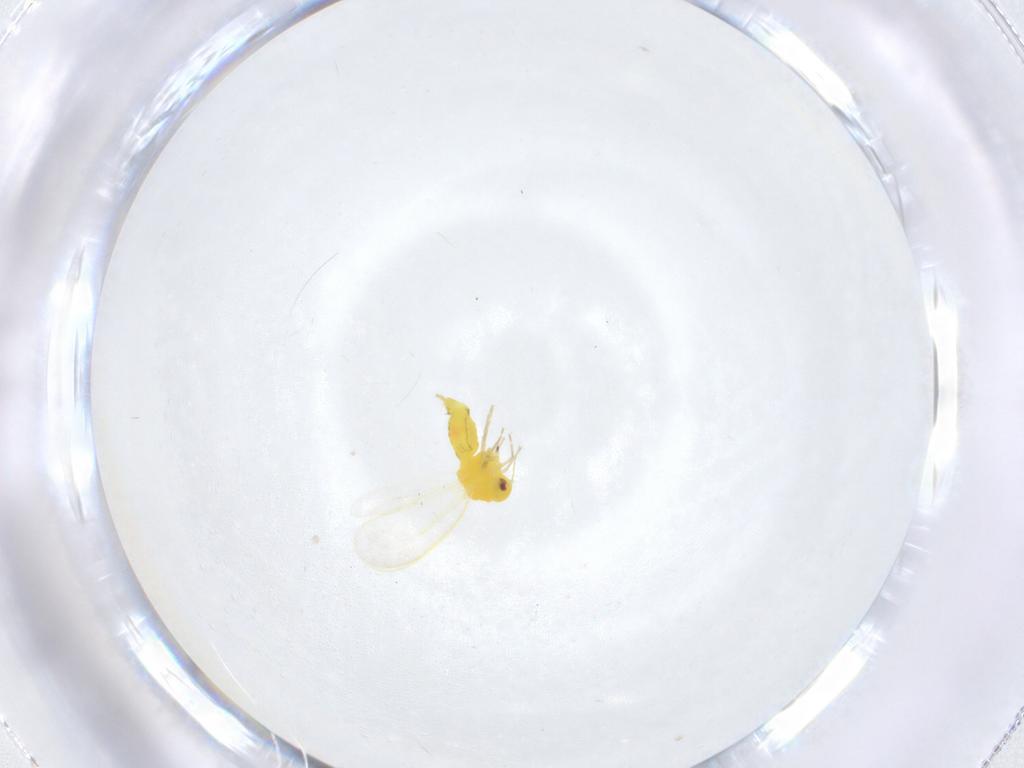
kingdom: Animalia
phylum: Arthropoda
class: Insecta
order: Hemiptera
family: Aleyrodidae
